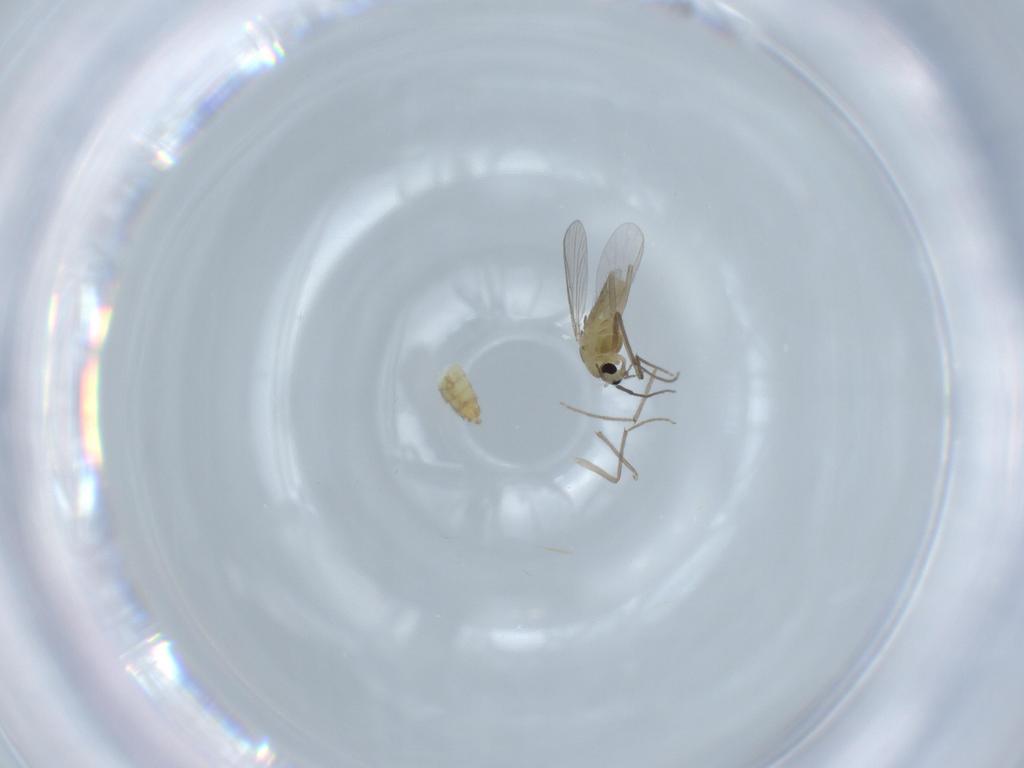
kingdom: Animalia
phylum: Arthropoda
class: Insecta
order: Diptera
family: Chironomidae
